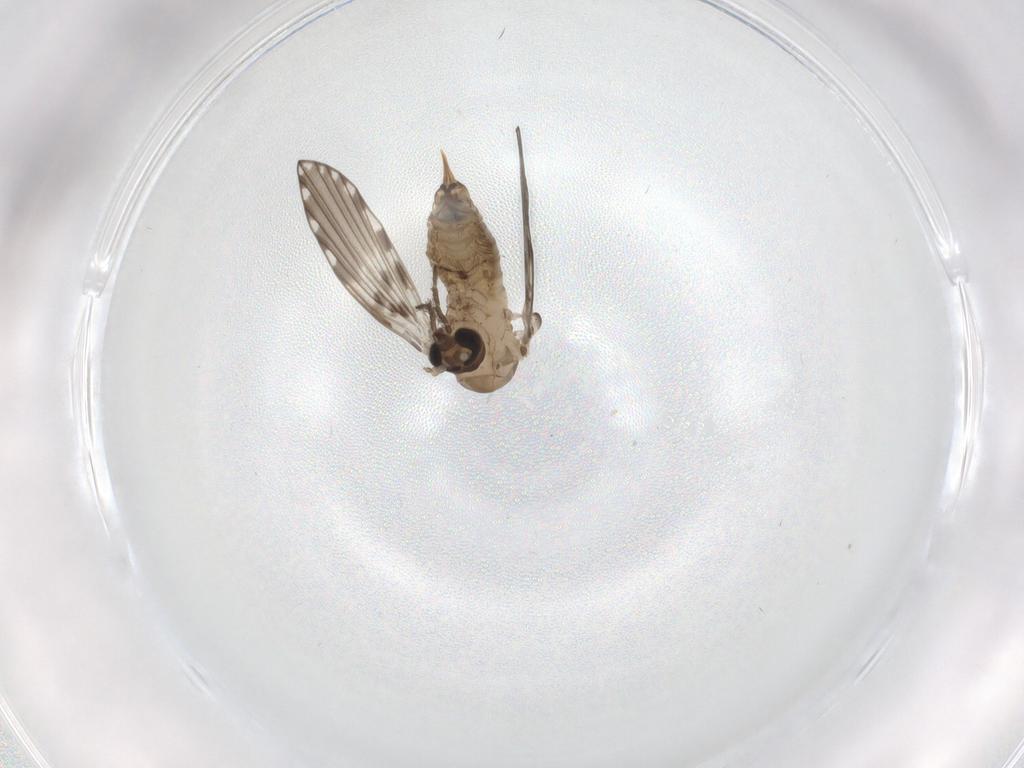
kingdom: Animalia
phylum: Arthropoda
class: Insecta
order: Diptera
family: Psychodidae
